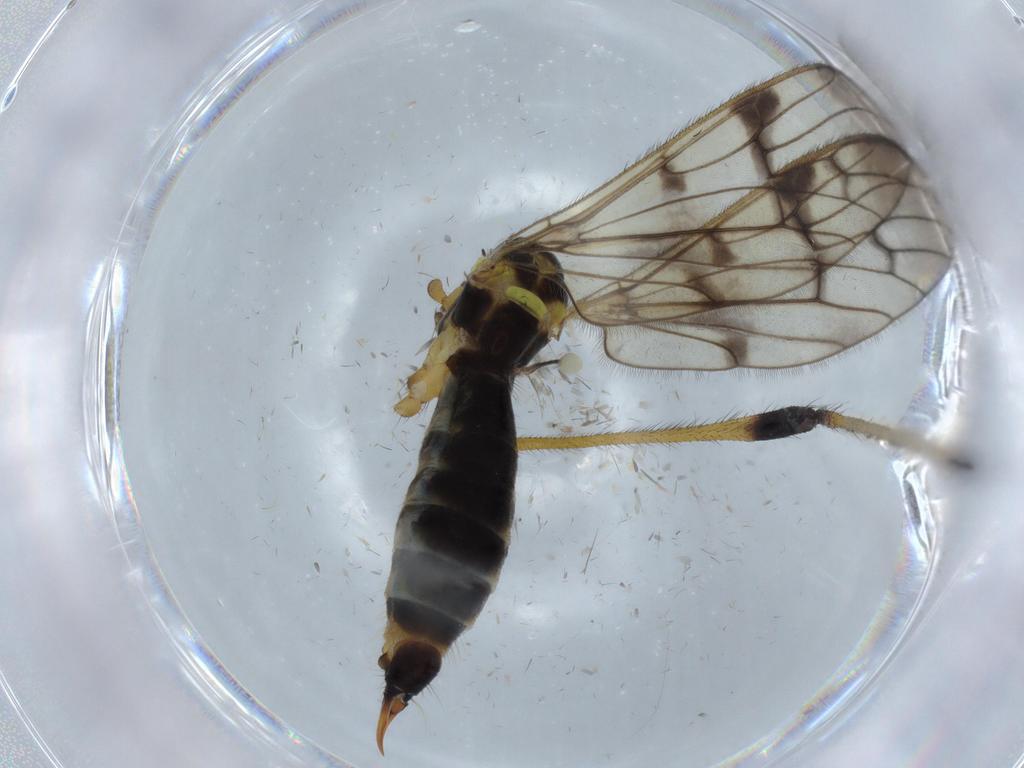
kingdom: Animalia
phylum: Arthropoda
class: Insecta
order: Diptera
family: Limoniidae
